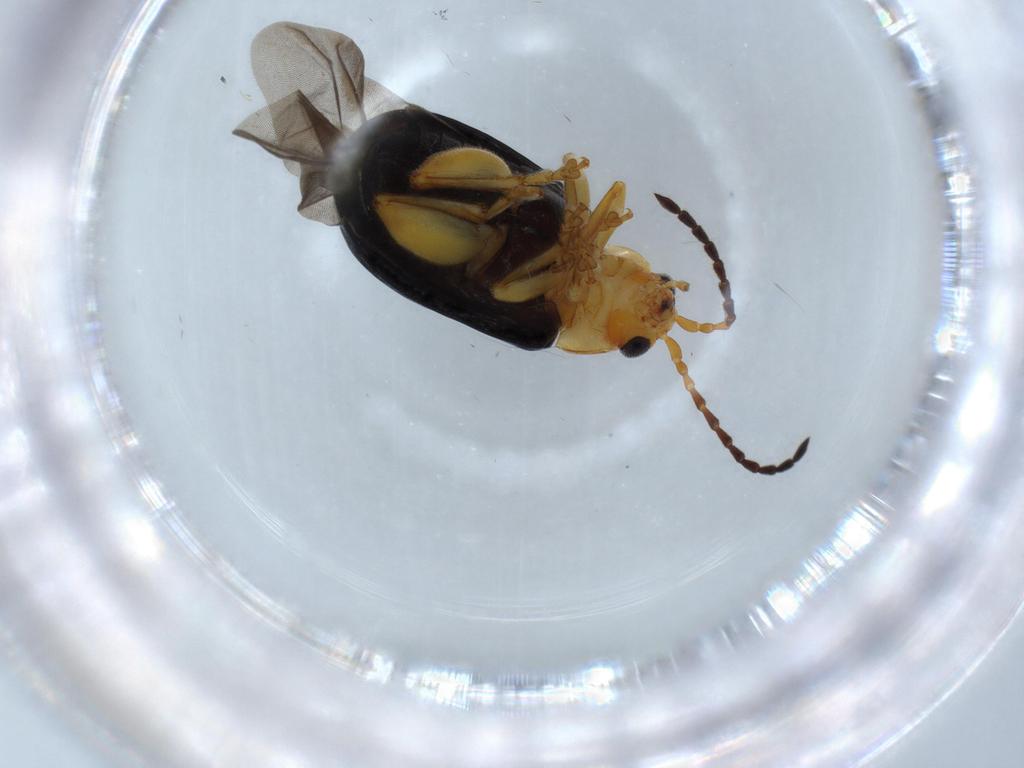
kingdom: Animalia
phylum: Arthropoda
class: Insecta
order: Coleoptera
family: Chrysomelidae
